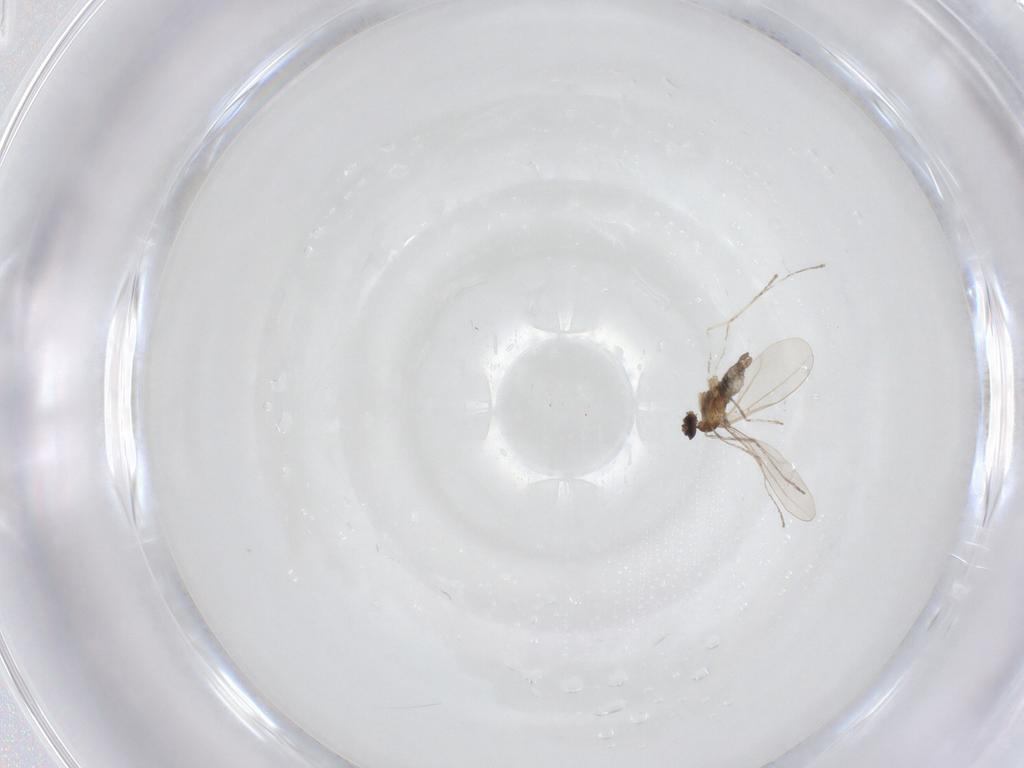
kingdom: Animalia
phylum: Arthropoda
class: Insecta
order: Diptera
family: Cecidomyiidae
